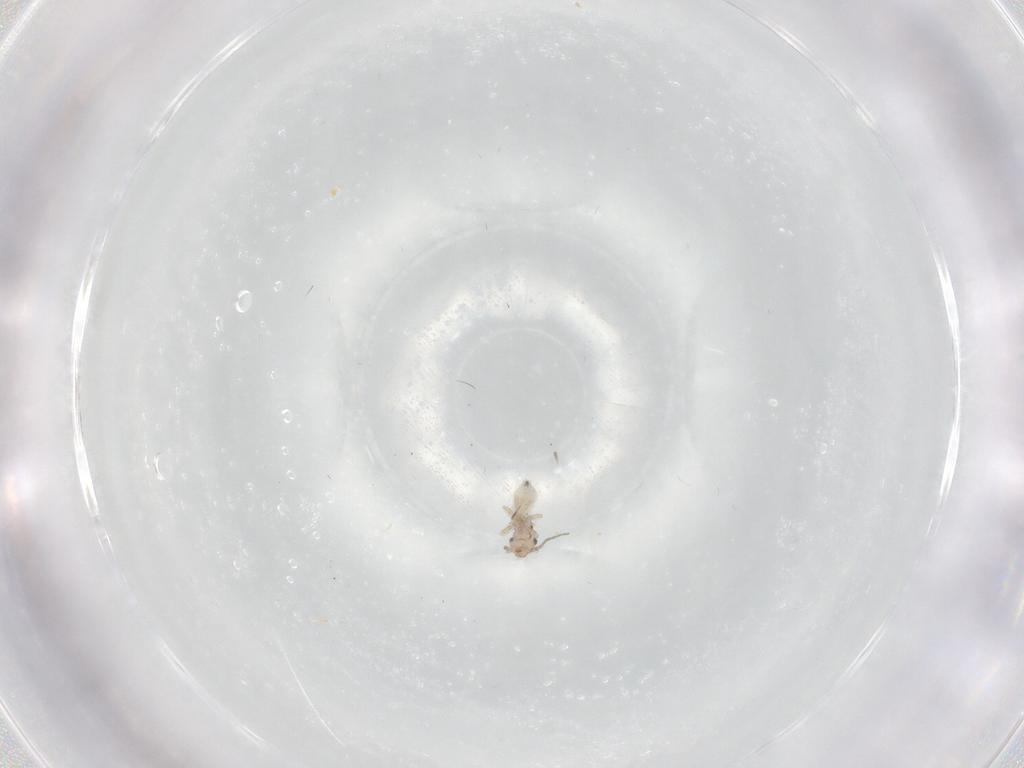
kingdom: Animalia
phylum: Arthropoda
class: Insecta
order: Psocodea
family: Lepidopsocidae
